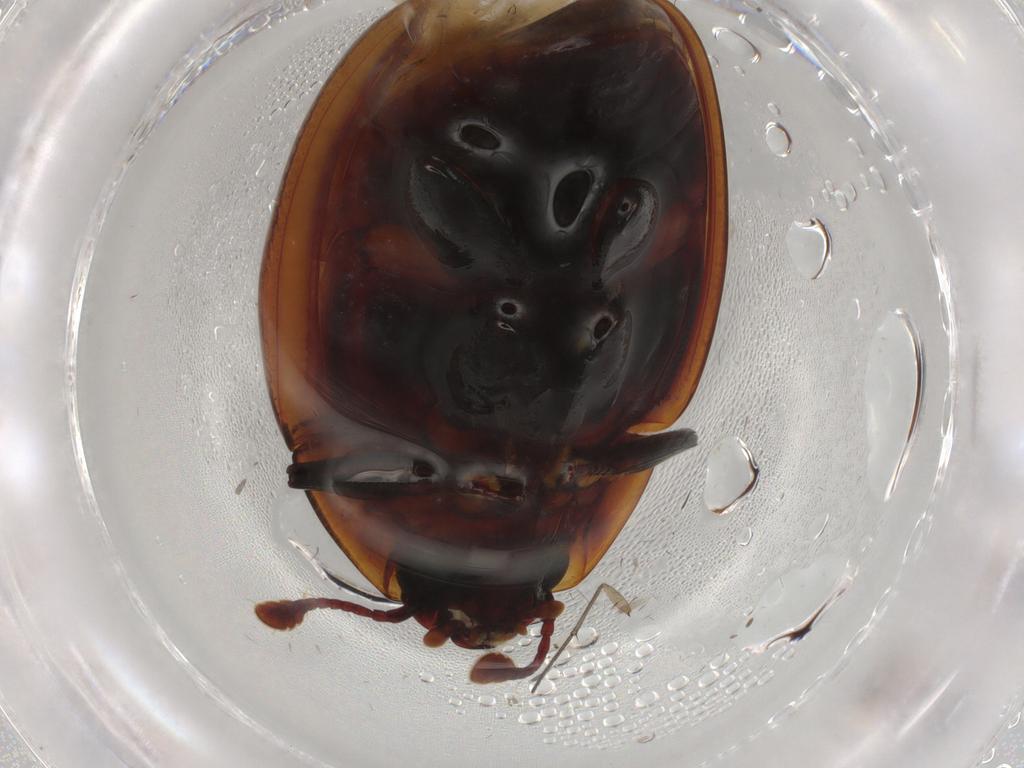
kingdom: Animalia
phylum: Arthropoda
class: Insecta
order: Coleoptera
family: Zopheridae
